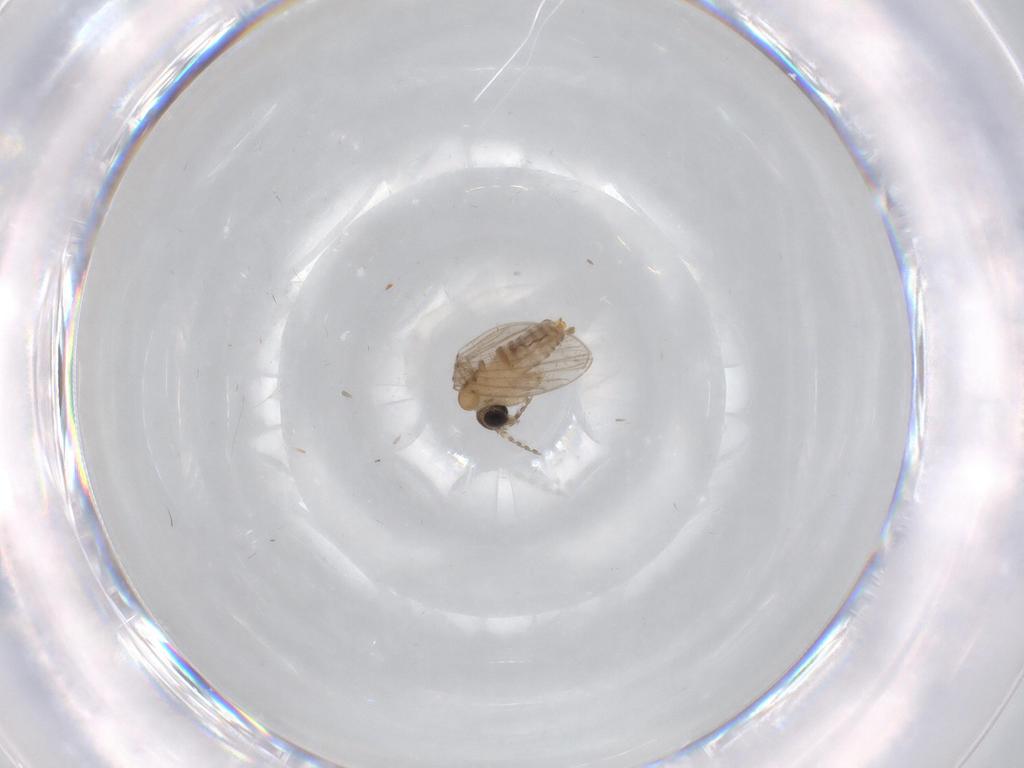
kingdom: Animalia
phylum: Arthropoda
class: Insecta
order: Diptera
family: Psychodidae
